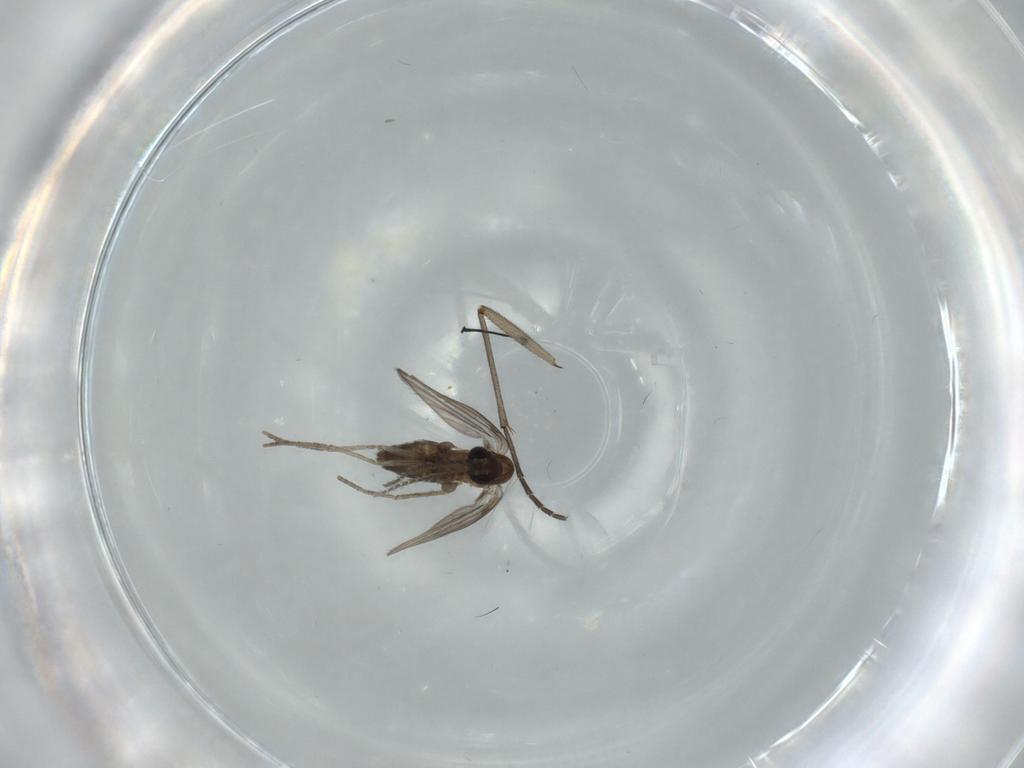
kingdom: Animalia
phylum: Arthropoda
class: Insecta
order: Diptera
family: Sciaridae
